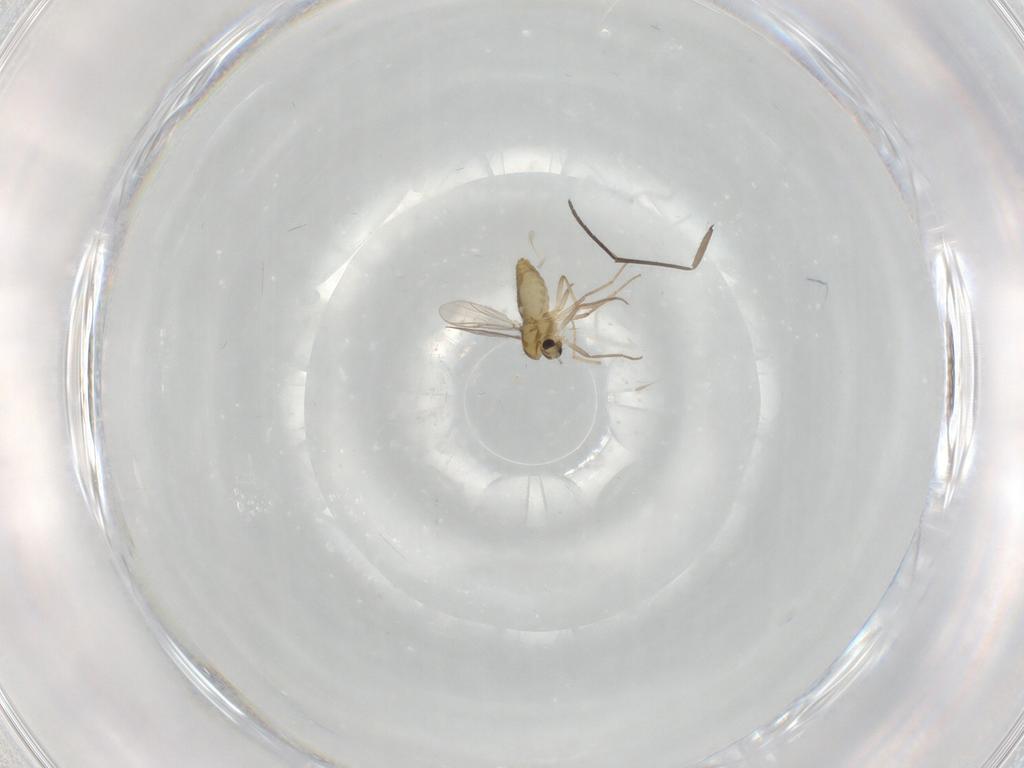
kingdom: Animalia
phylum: Arthropoda
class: Insecta
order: Diptera
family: Chironomidae
